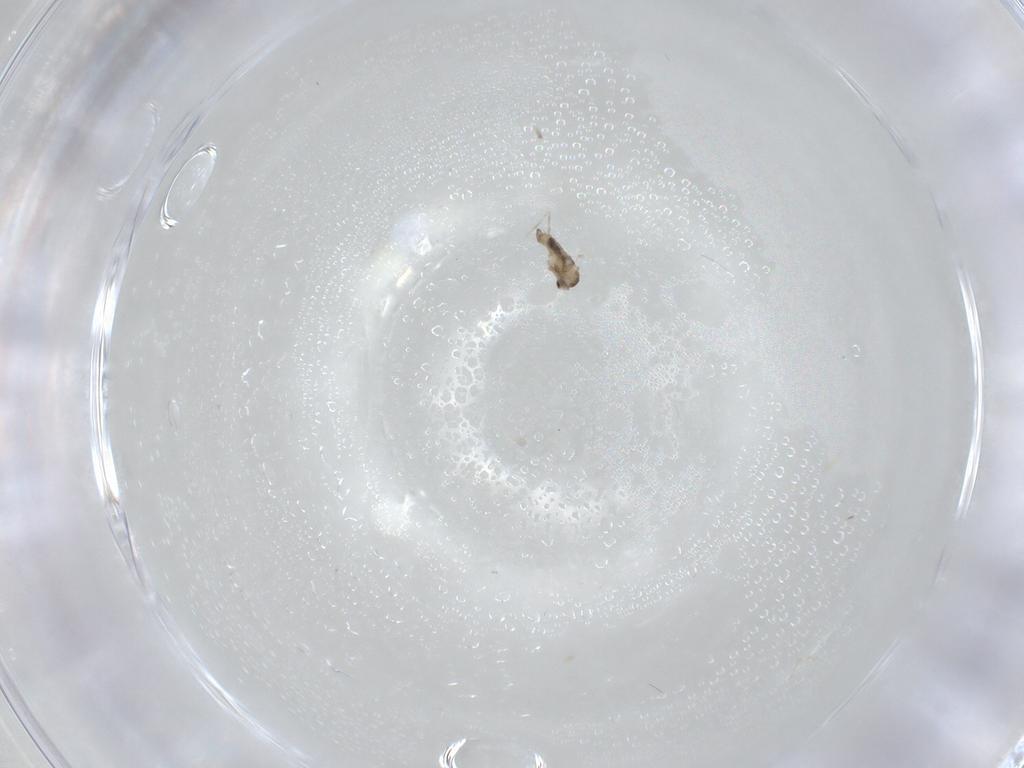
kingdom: Animalia
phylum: Arthropoda
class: Insecta
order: Diptera
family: Cecidomyiidae
